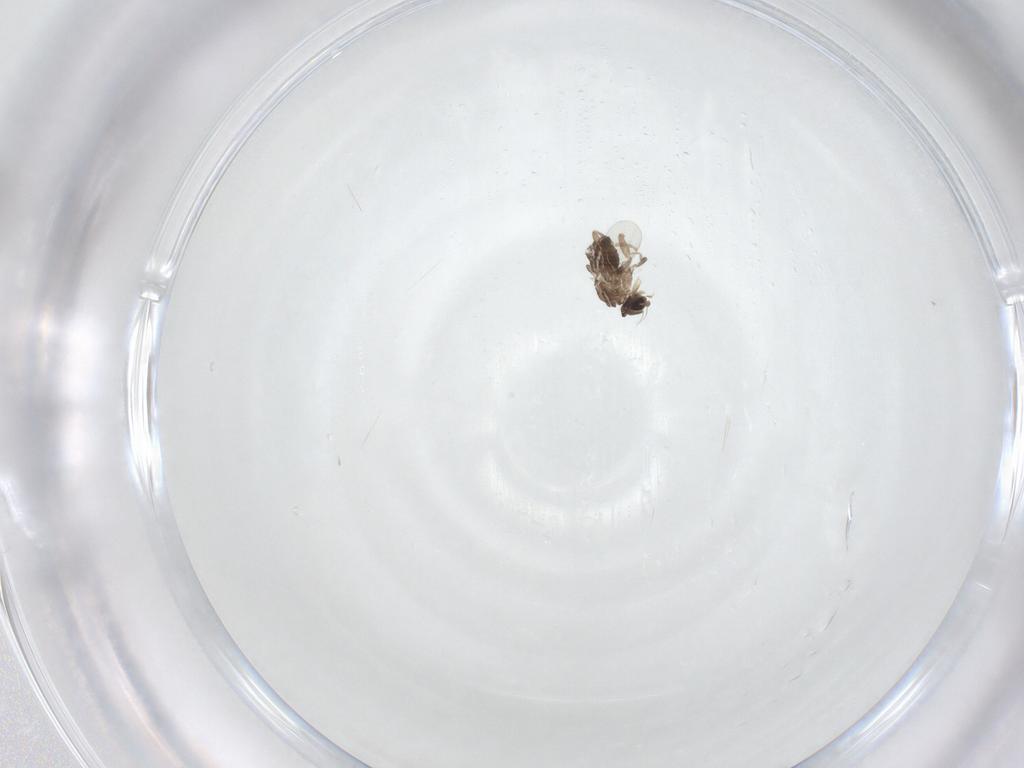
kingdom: Animalia
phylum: Arthropoda
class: Insecta
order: Diptera
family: Phoridae
